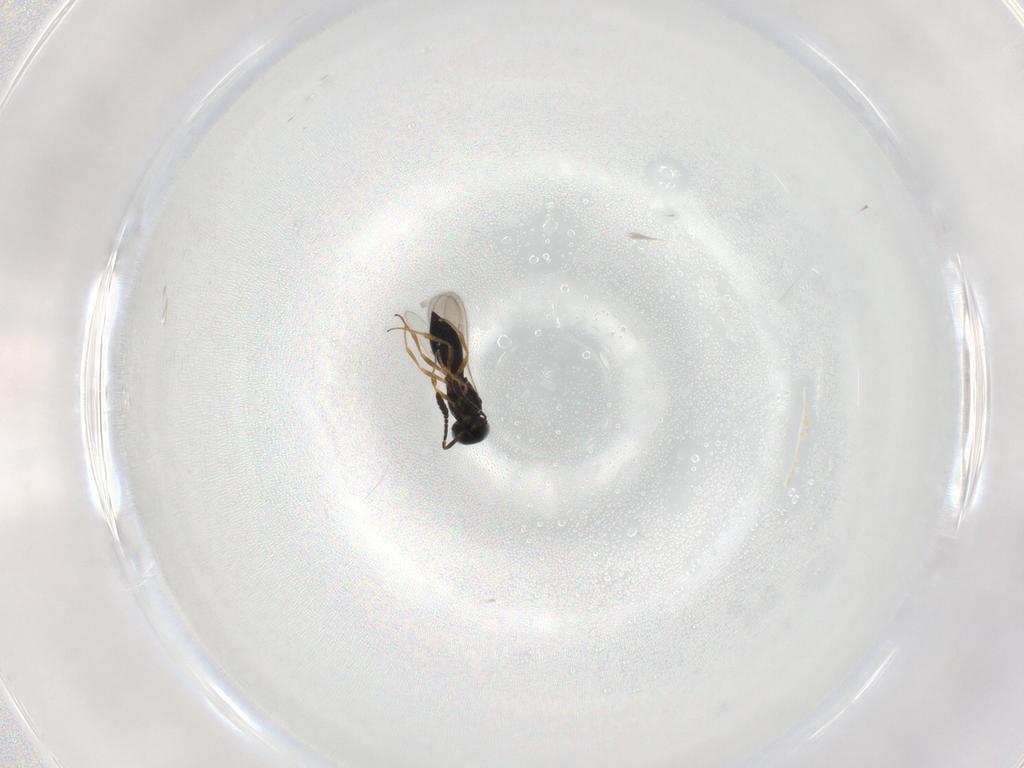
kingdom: Animalia
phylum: Arthropoda
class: Insecta
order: Hymenoptera
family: Scelionidae
